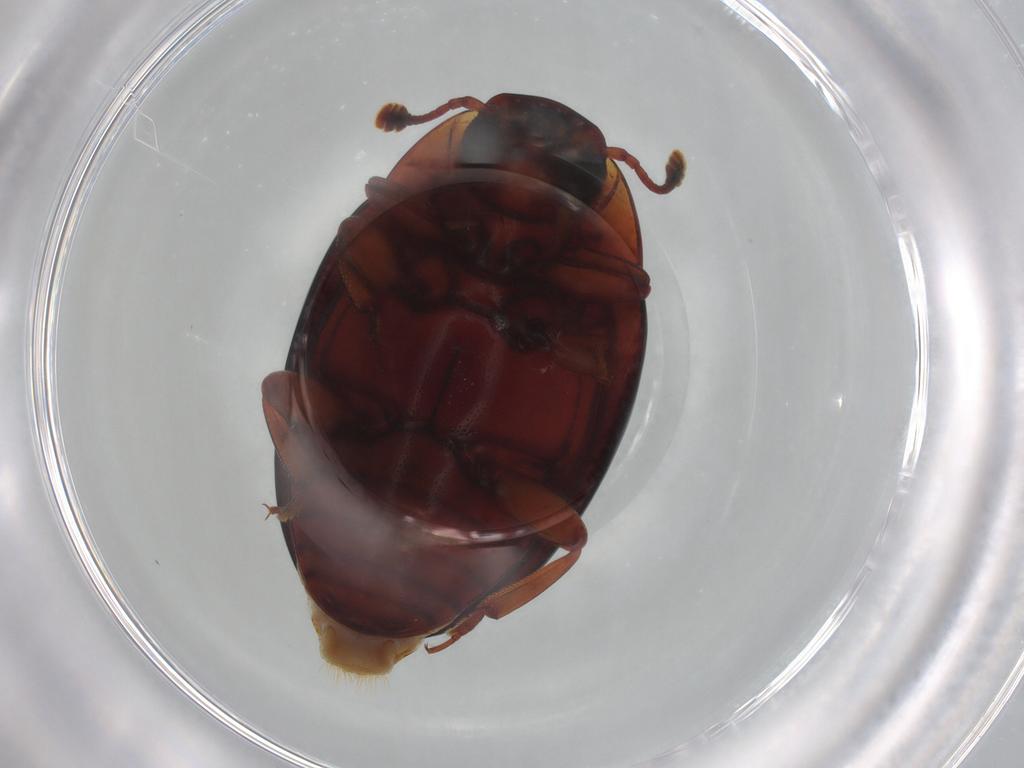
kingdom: Animalia
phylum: Arthropoda
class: Insecta
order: Coleoptera
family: Zopheridae
